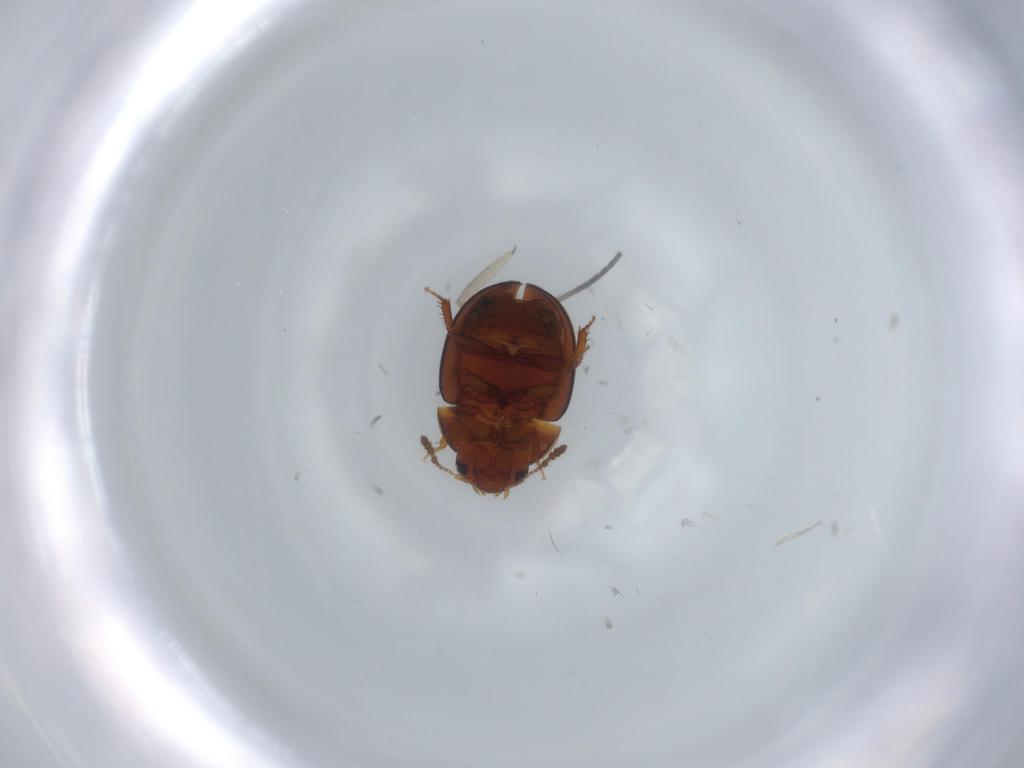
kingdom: Animalia
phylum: Arthropoda
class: Insecta
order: Coleoptera
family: Leiodidae
